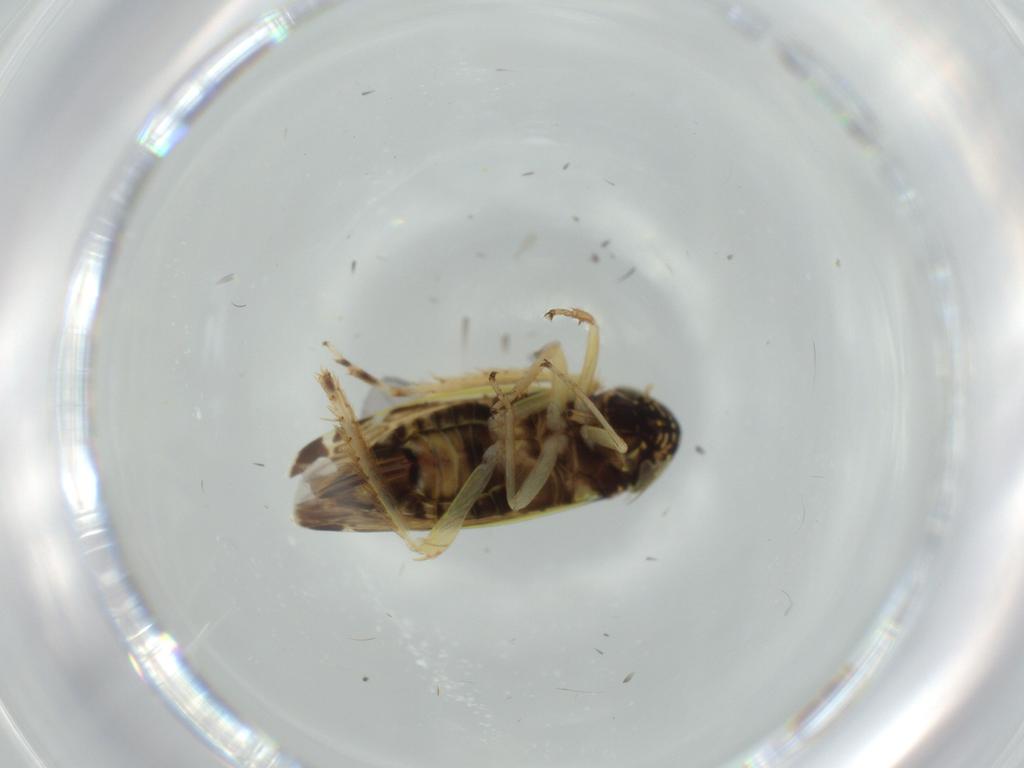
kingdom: Animalia
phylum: Arthropoda
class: Insecta
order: Hemiptera
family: Cicadellidae
